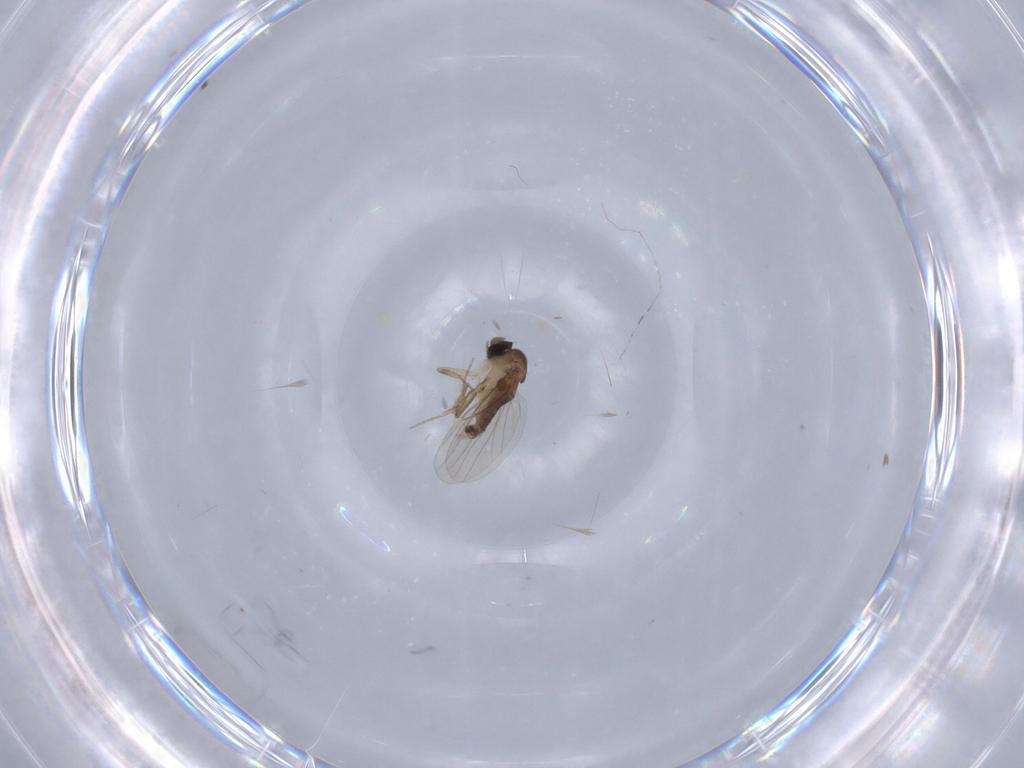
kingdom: Animalia
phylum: Arthropoda
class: Insecta
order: Diptera
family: Phoridae
